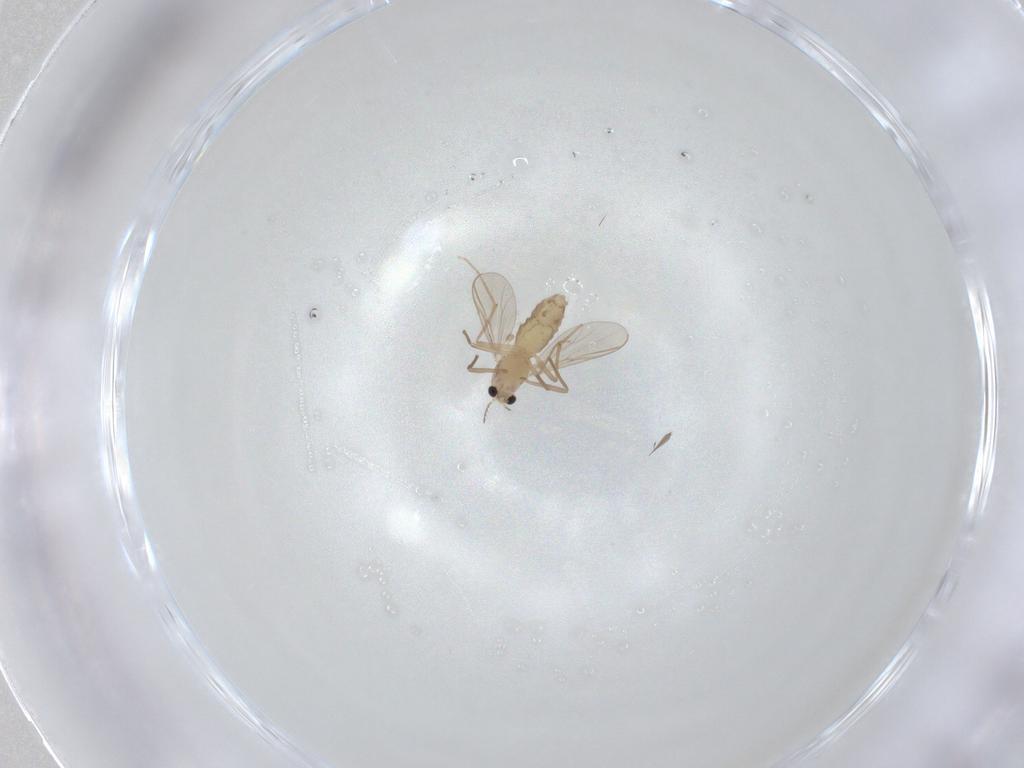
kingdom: Animalia
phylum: Arthropoda
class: Insecta
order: Diptera
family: Chironomidae
